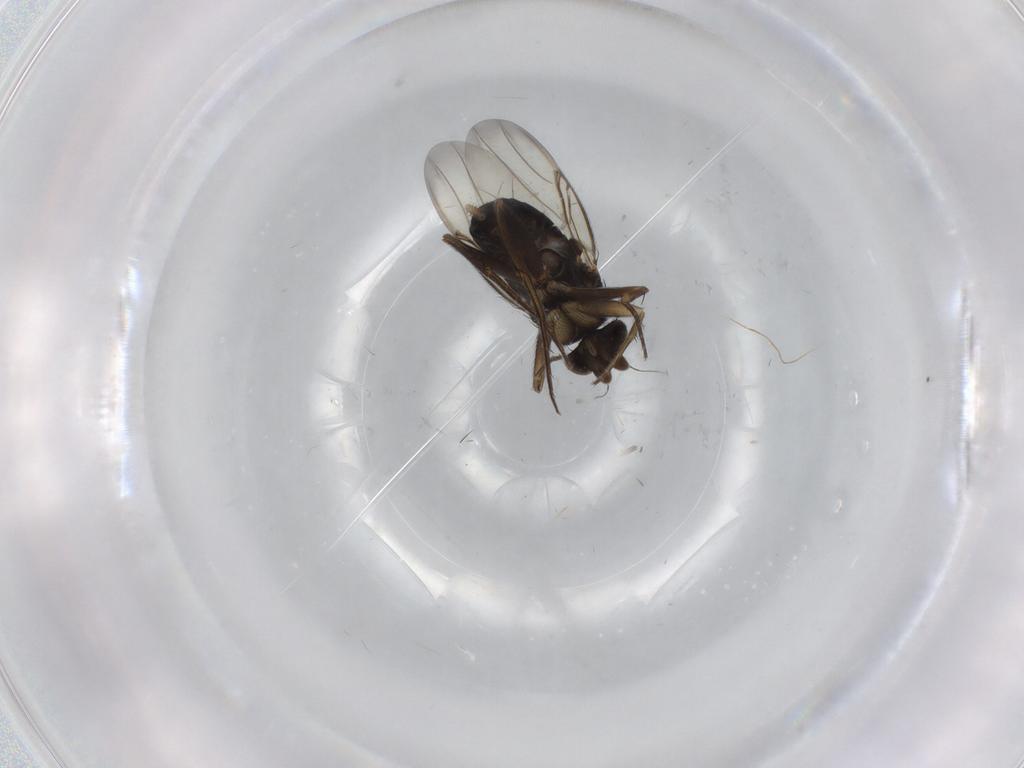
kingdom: Animalia
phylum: Arthropoda
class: Insecta
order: Diptera
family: Phoridae
